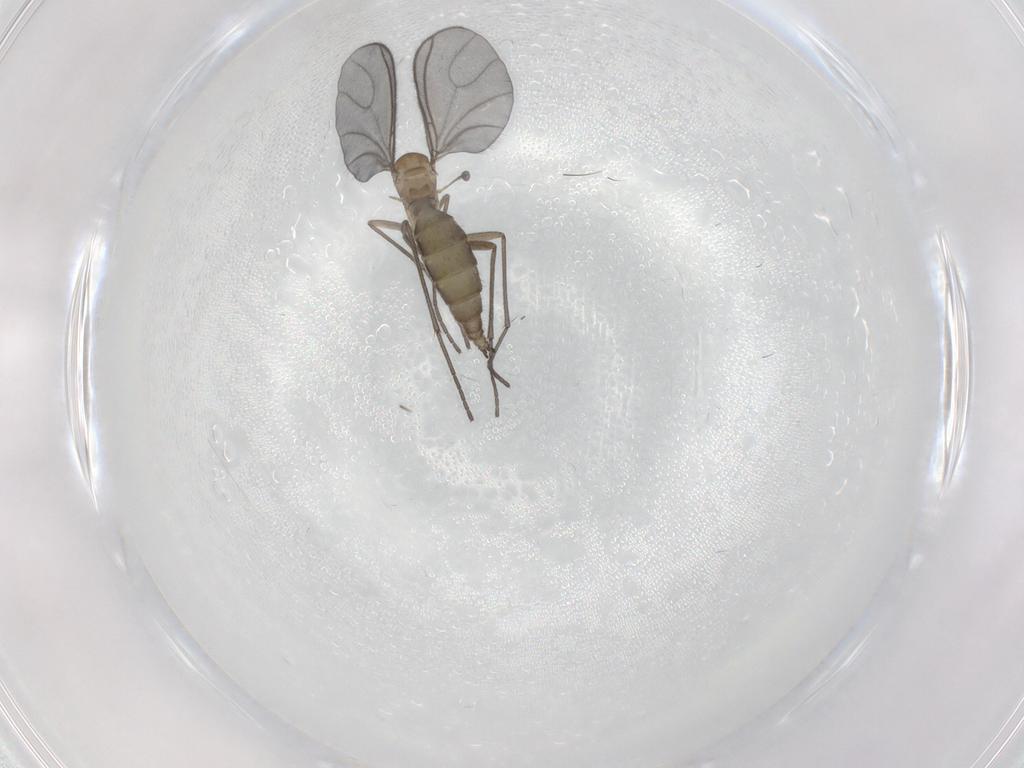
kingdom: Animalia
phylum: Arthropoda
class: Insecta
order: Diptera
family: Sciaridae
